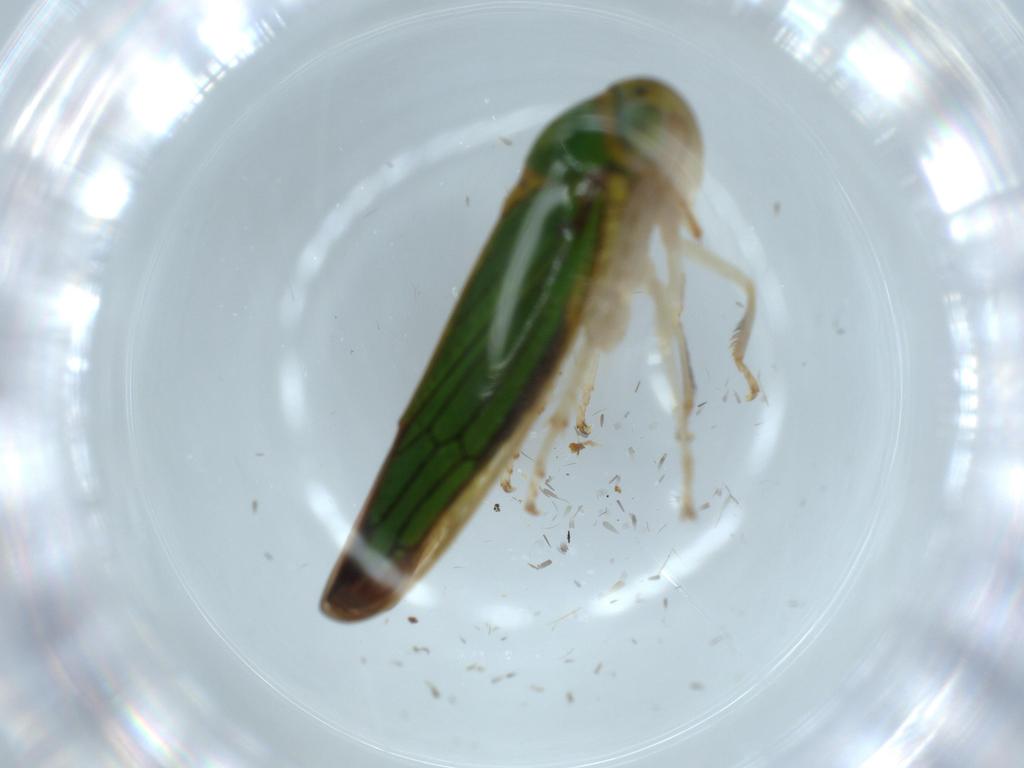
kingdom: Animalia
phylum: Arthropoda
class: Insecta
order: Hemiptera
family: Cicadellidae
